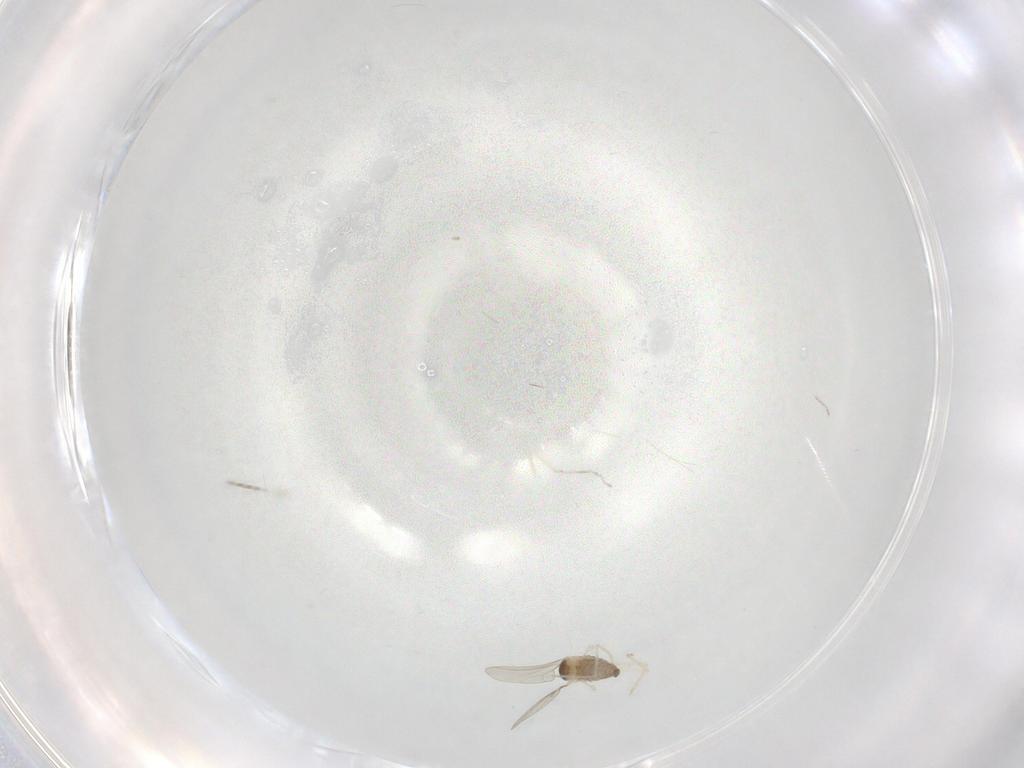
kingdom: Animalia
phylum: Arthropoda
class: Insecta
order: Diptera
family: Cecidomyiidae
